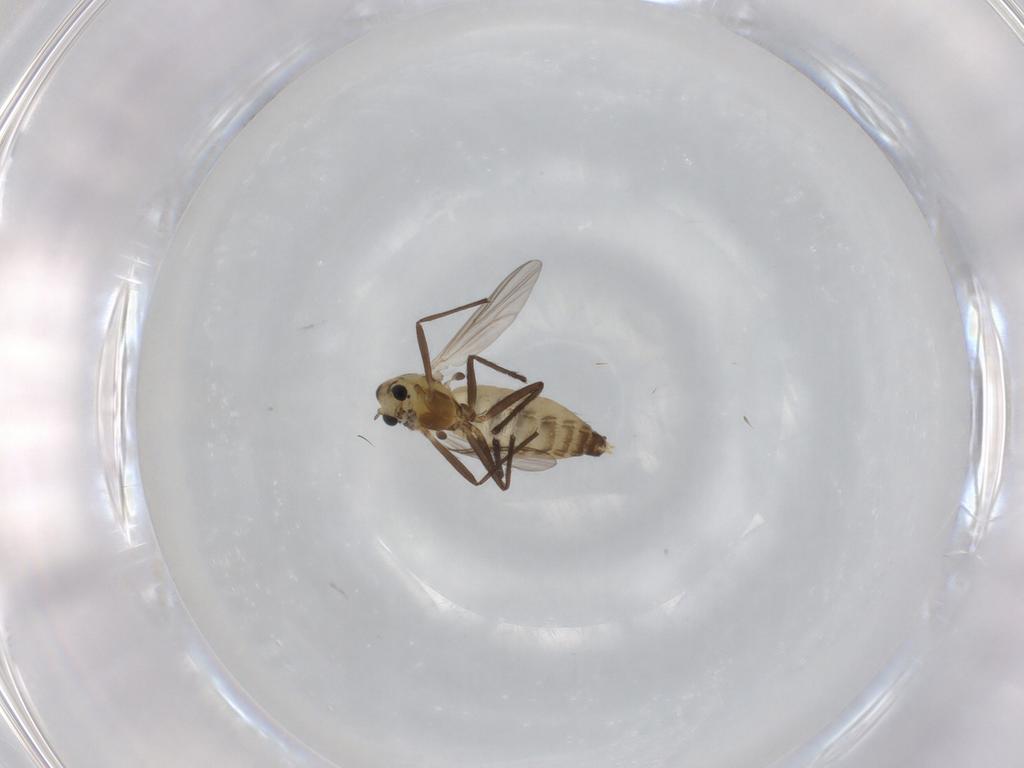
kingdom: Animalia
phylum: Arthropoda
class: Insecta
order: Diptera
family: Chironomidae
